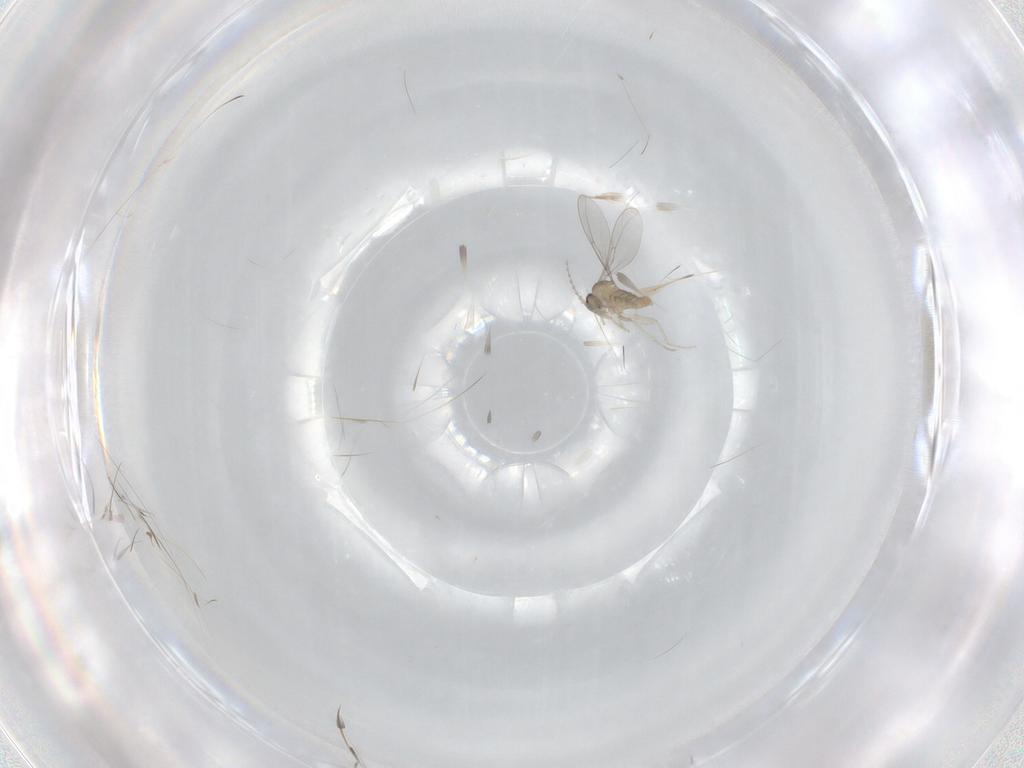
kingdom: Animalia
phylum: Arthropoda
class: Insecta
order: Diptera
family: Cecidomyiidae
